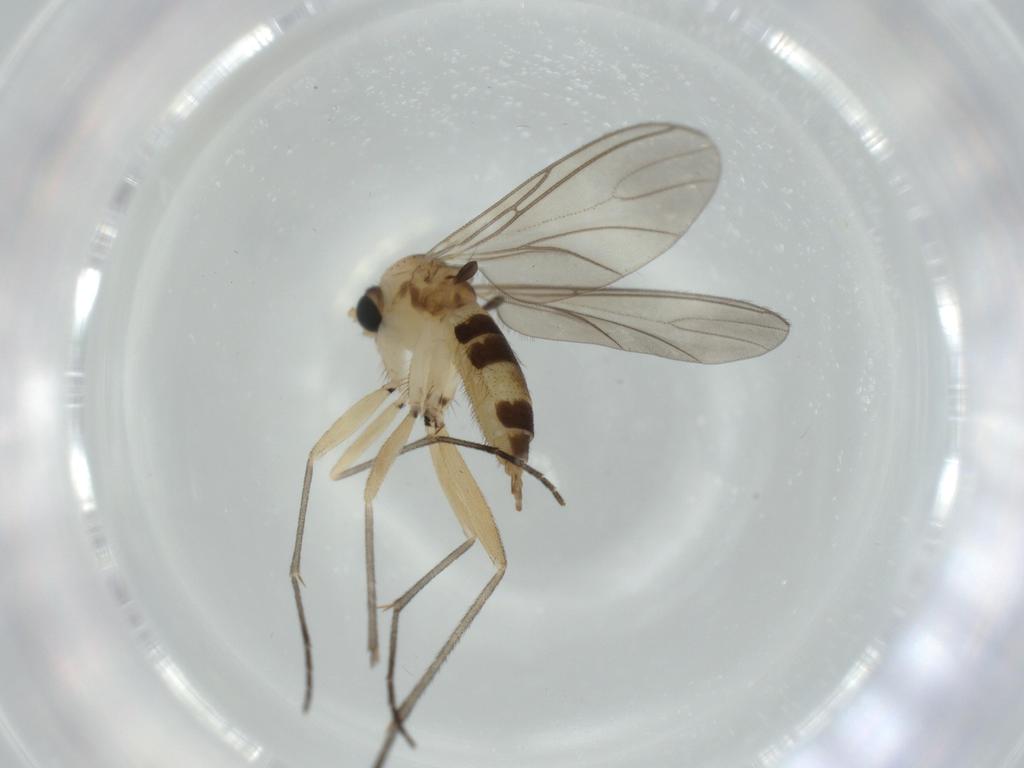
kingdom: Animalia
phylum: Arthropoda
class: Insecta
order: Diptera
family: Sciaridae
